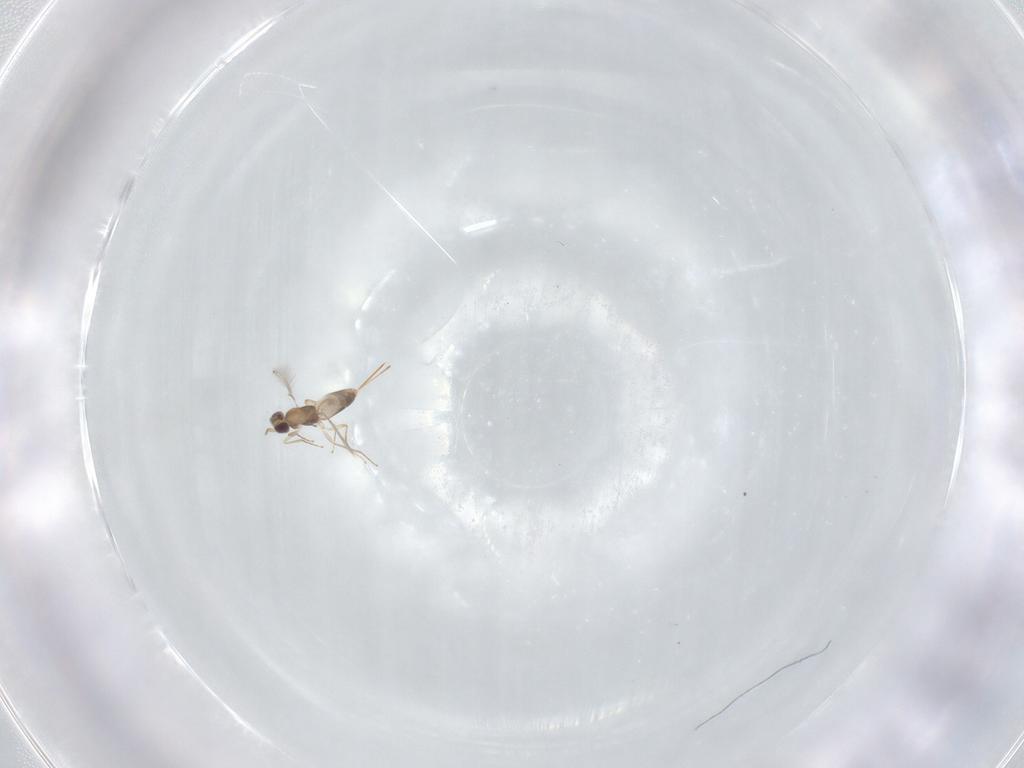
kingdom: Animalia
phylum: Arthropoda
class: Insecta
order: Hymenoptera
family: Mymaridae
